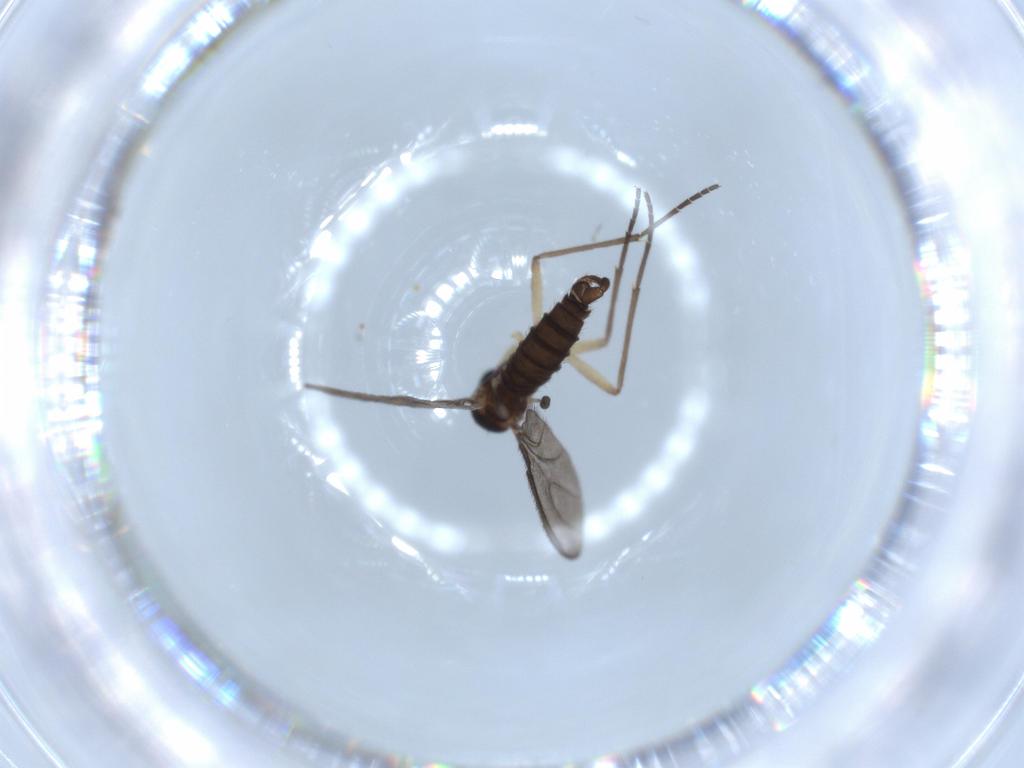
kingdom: Animalia
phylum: Arthropoda
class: Insecta
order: Diptera
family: Sciaridae
